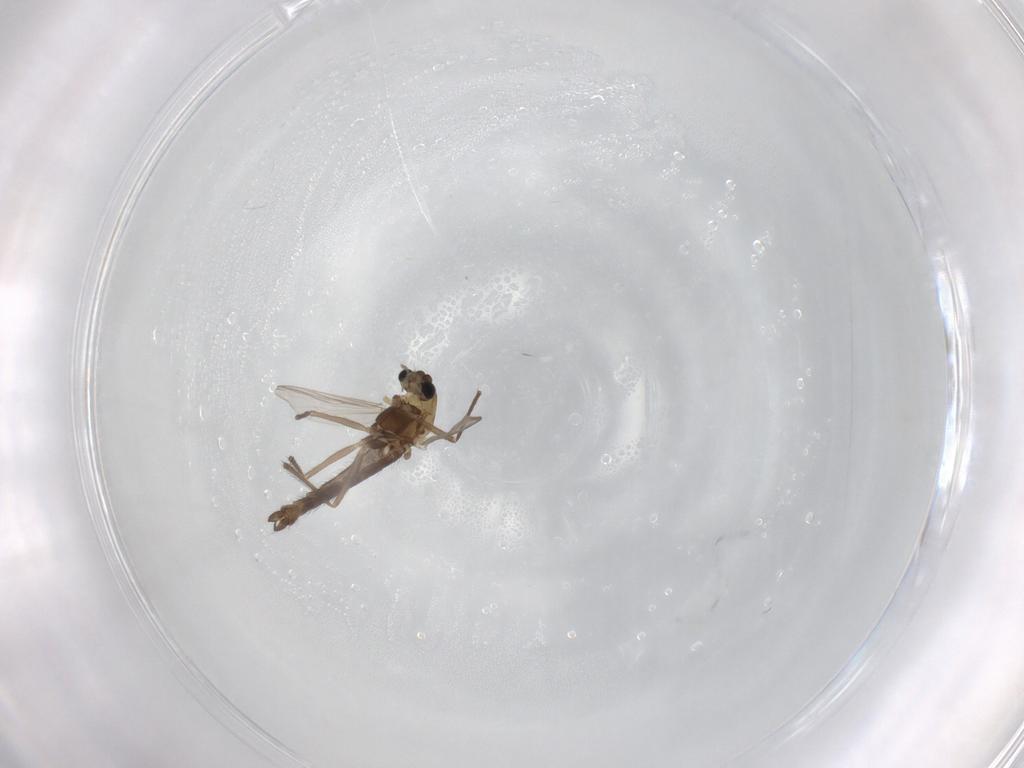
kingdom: Animalia
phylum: Arthropoda
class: Insecta
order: Diptera
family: Chironomidae
